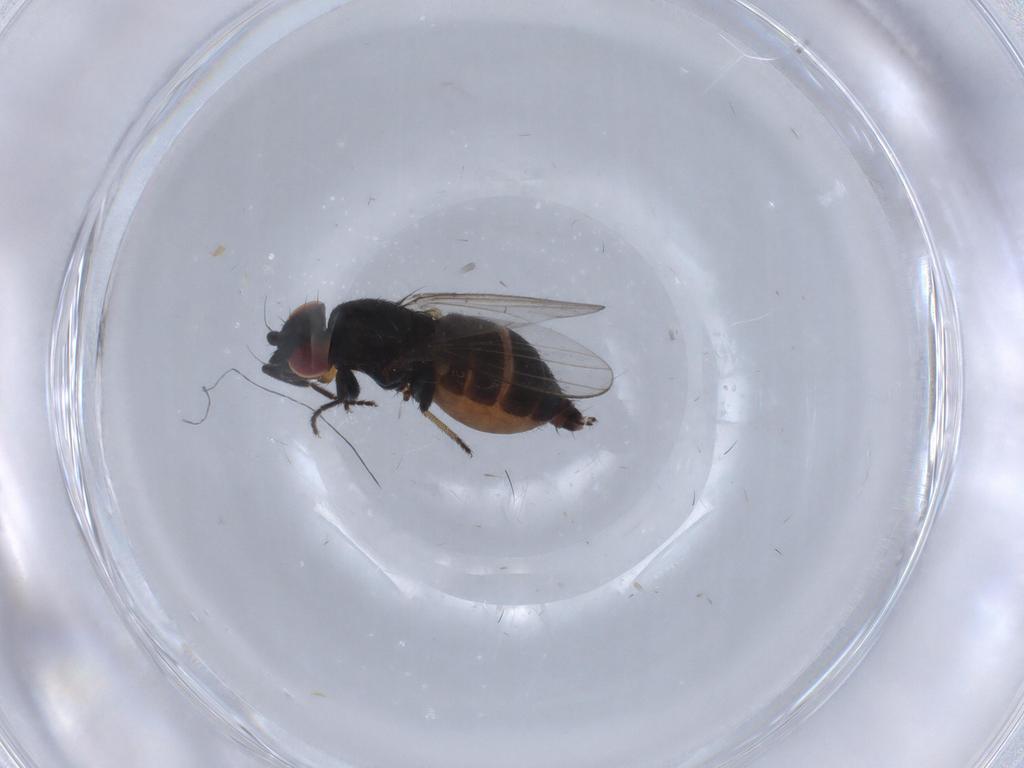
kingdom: Animalia
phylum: Arthropoda
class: Insecta
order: Diptera
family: Milichiidae
